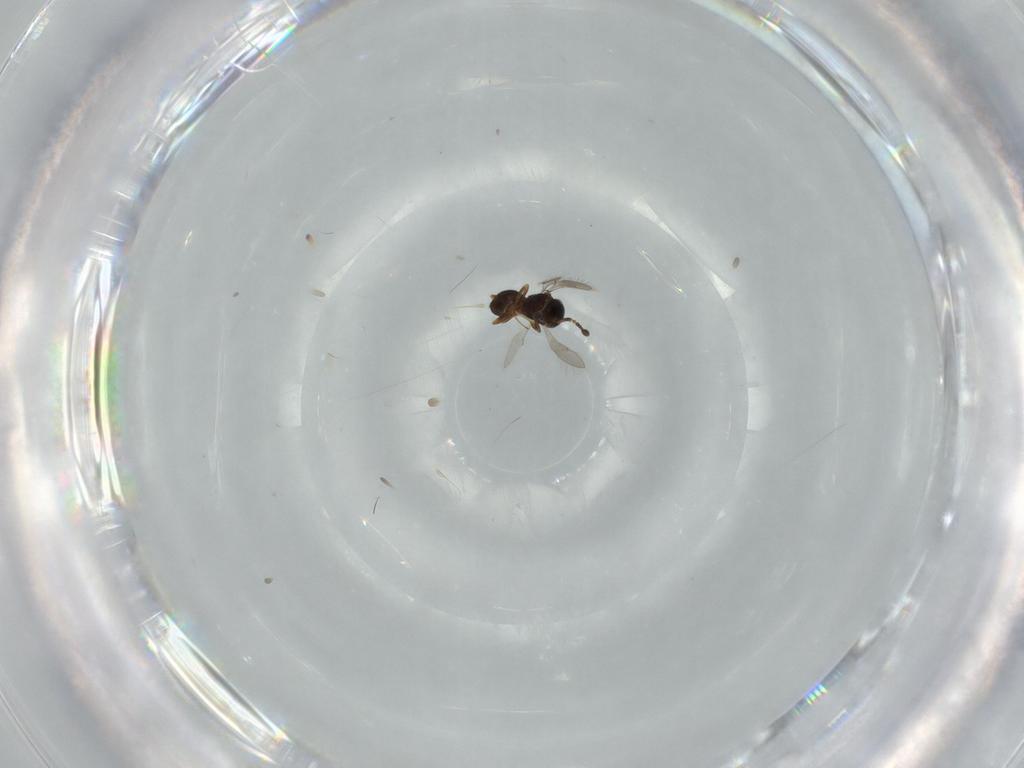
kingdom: Animalia
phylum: Arthropoda
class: Insecta
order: Hymenoptera
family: Scelionidae
